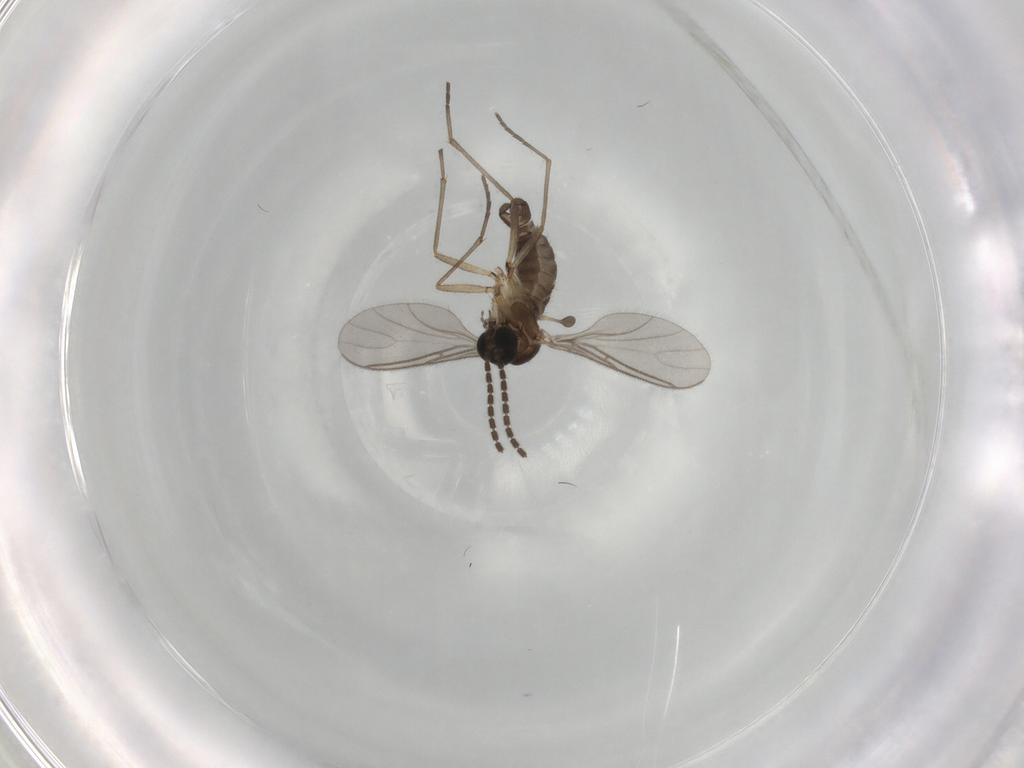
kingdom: Animalia
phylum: Arthropoda
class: Insecta
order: Diptera
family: Sciaridae
